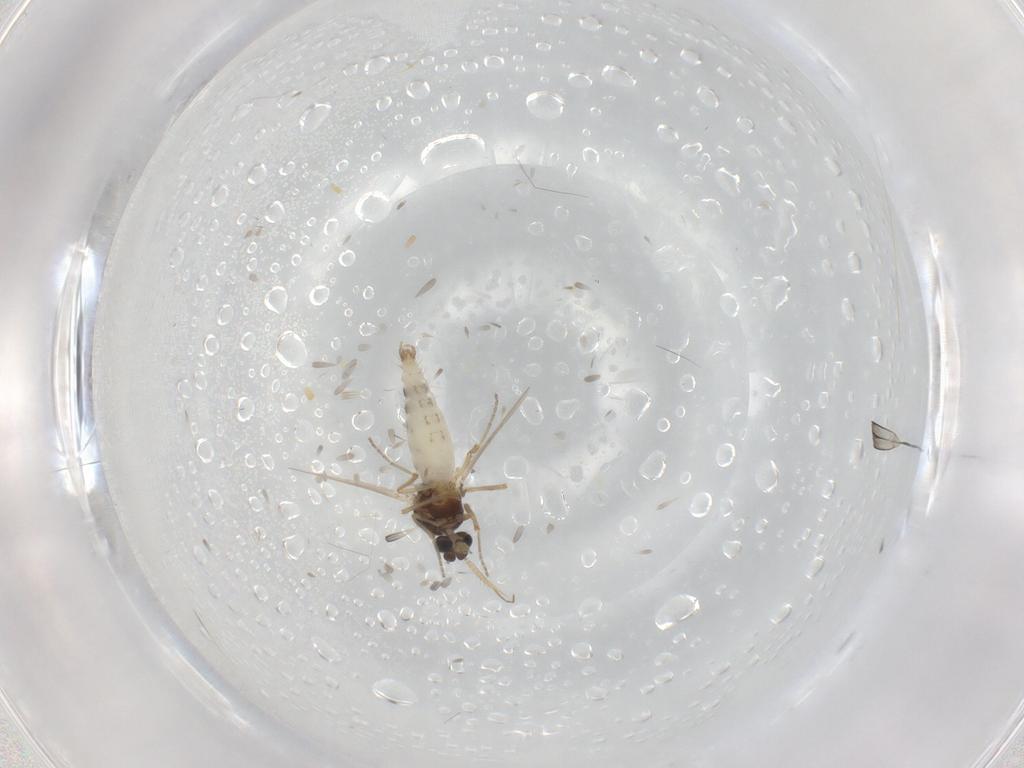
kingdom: Animalia
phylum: Arthropoda
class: Insecta
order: Diptera
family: Ceratopogonidae
